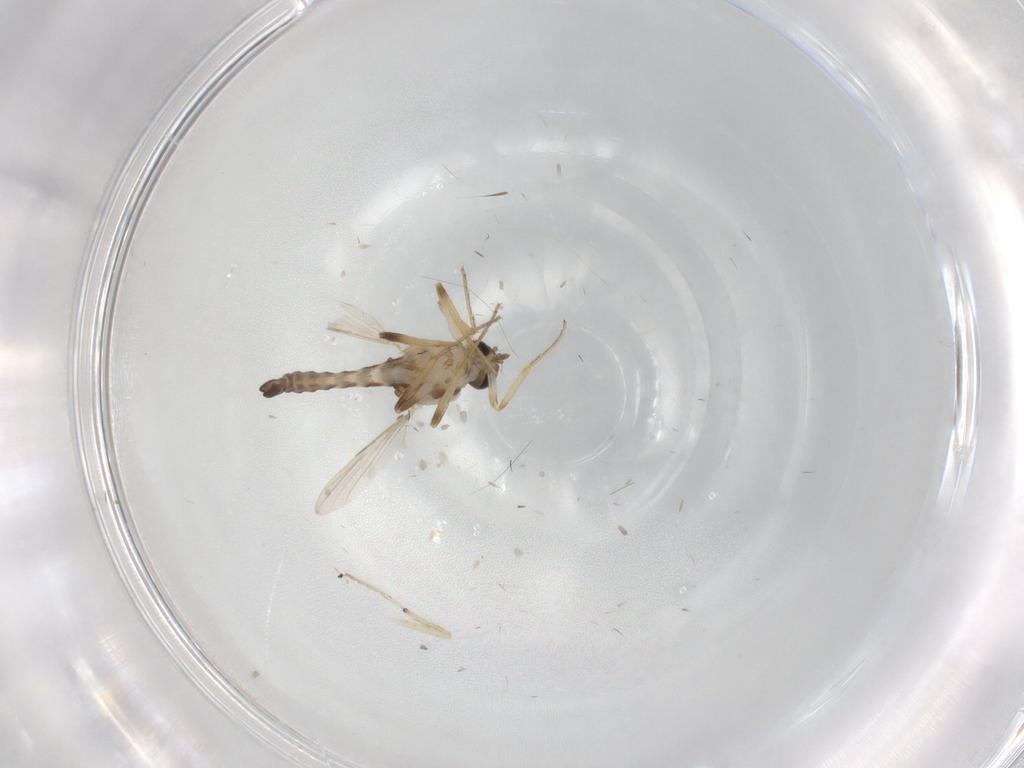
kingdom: Animalia
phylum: Arthropoda
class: Insecta
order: Diptera
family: Ceratopogonidae
